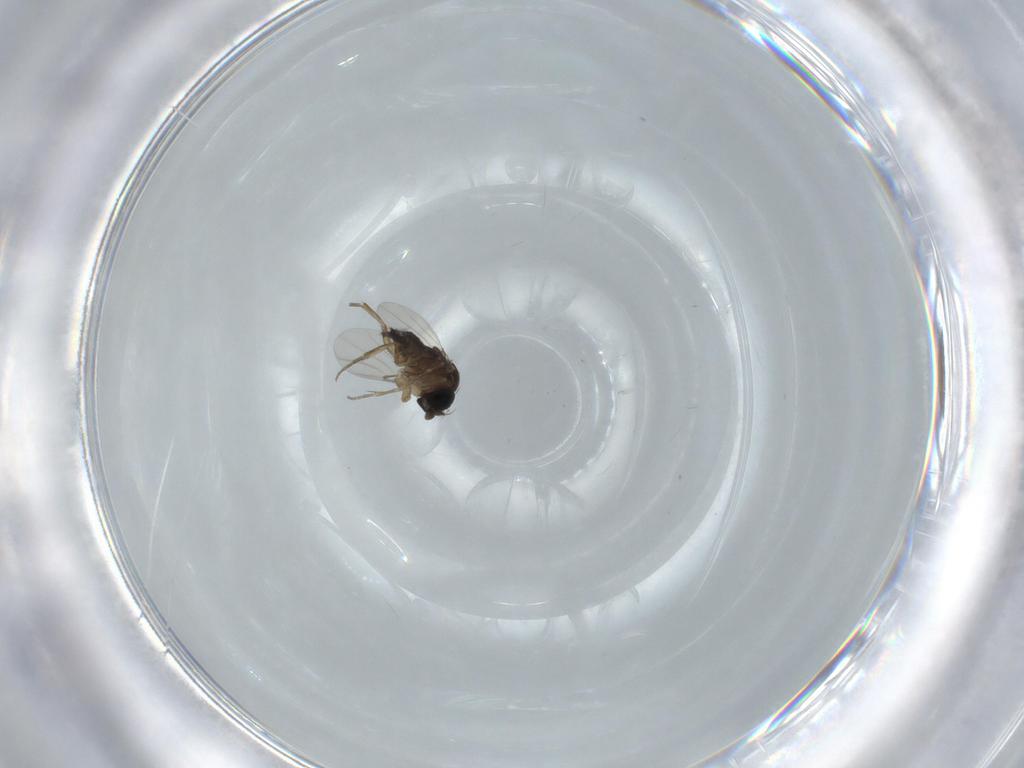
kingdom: Animalia
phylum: Arthropoda
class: Insecta
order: Diptera
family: Phoridae
